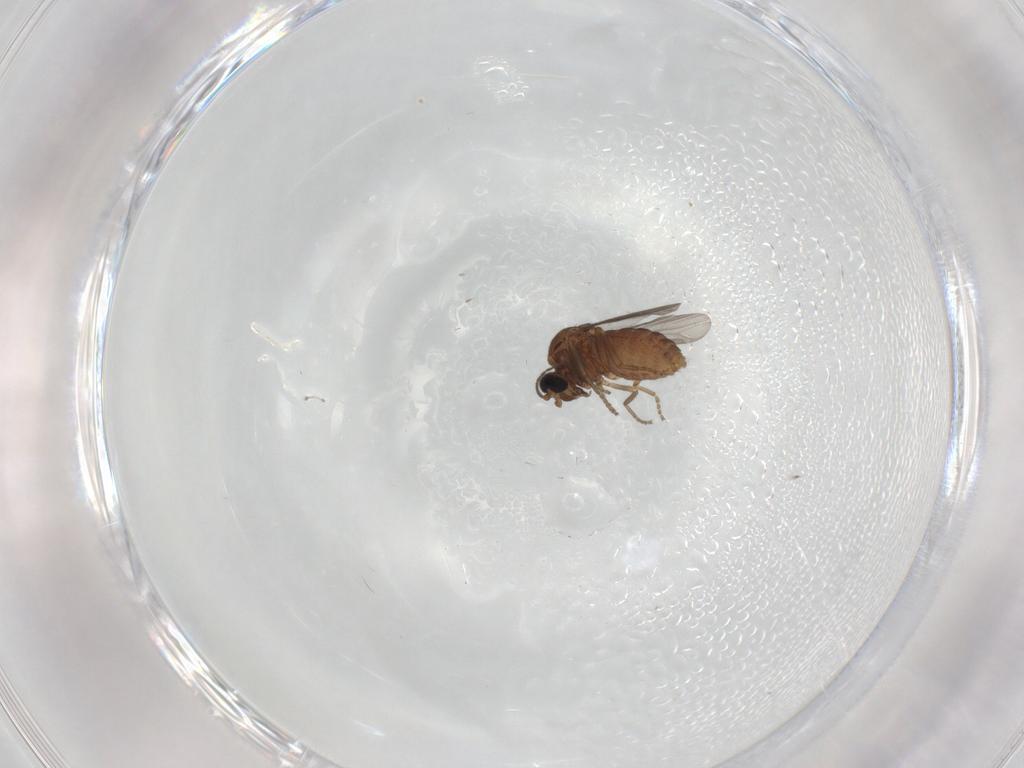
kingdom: Animalia
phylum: Arthropoda
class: Insecta
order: Diptera
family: Ceratopogonidae
